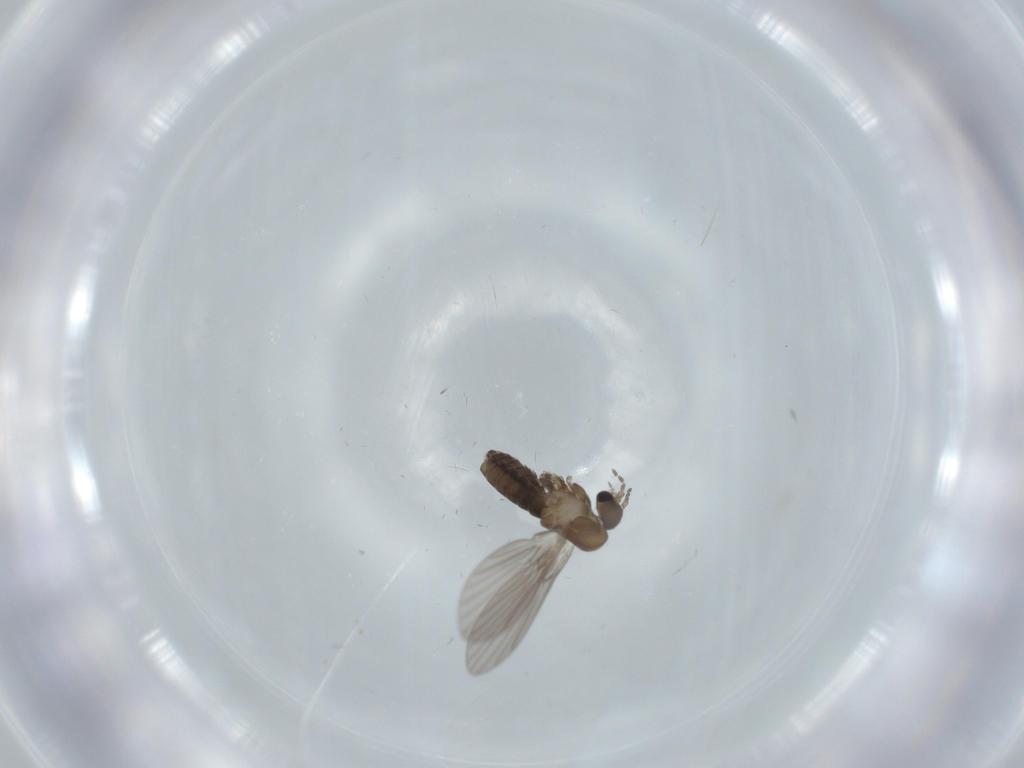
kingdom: Animalia
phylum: Arthropoda
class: Insecta
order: Diptera
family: Psychodidae
